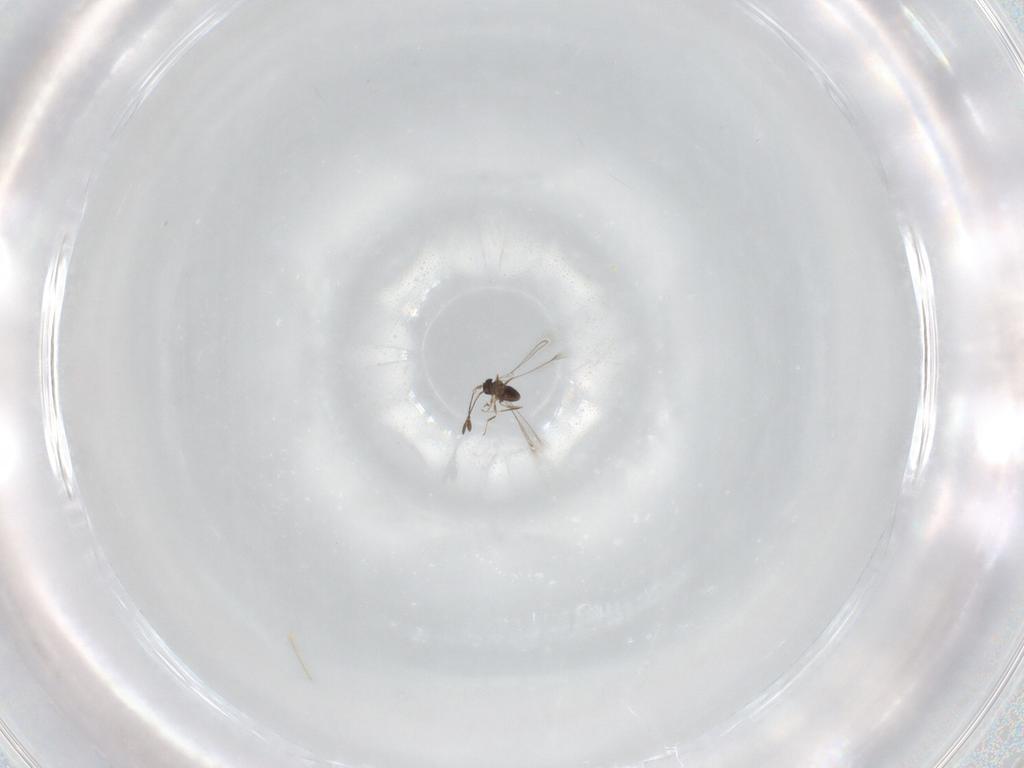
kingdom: Animalia
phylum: Arthropoda
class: Insecta
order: Hymenoptera
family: Mymaridae
